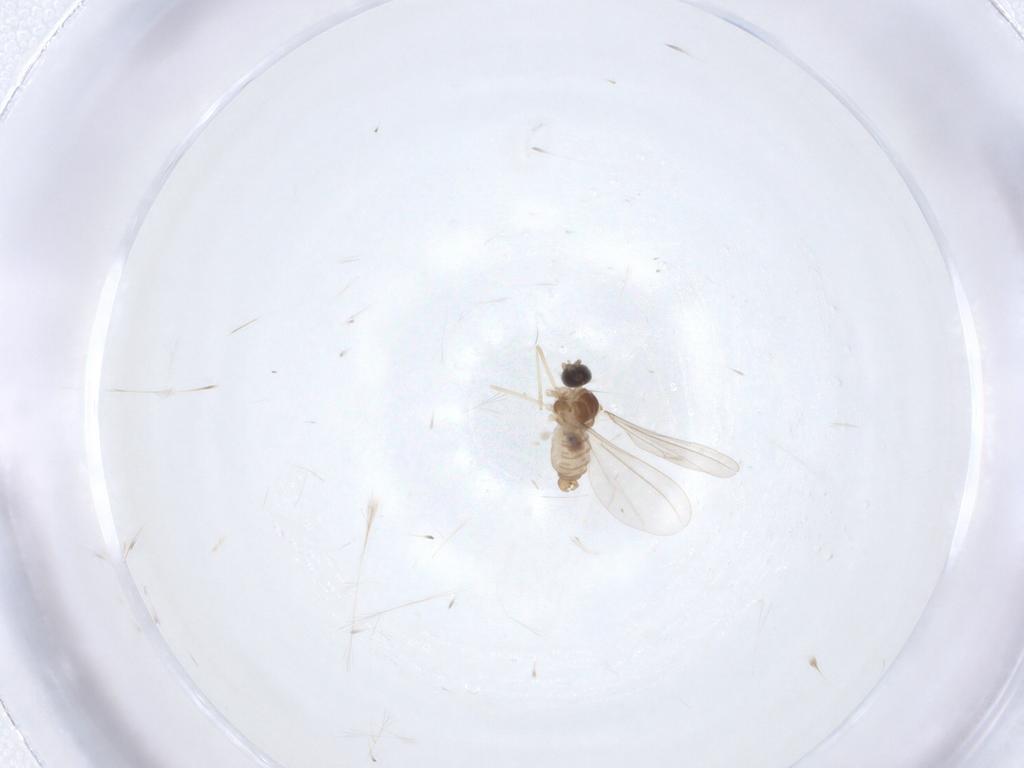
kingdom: Animalia
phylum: Arthropoda
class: Insecta
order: Diptera
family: Cecidomyiidae
